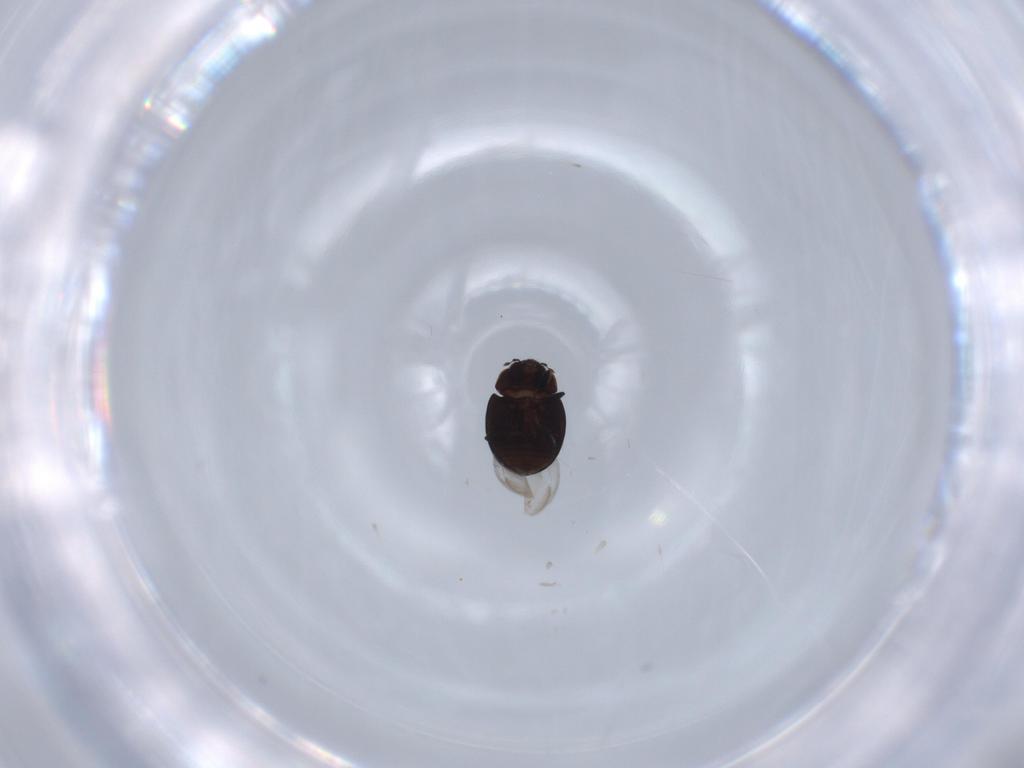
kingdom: Animalia
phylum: Arthropoda
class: Insecta
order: Coleoptera
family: Coccinellidae
